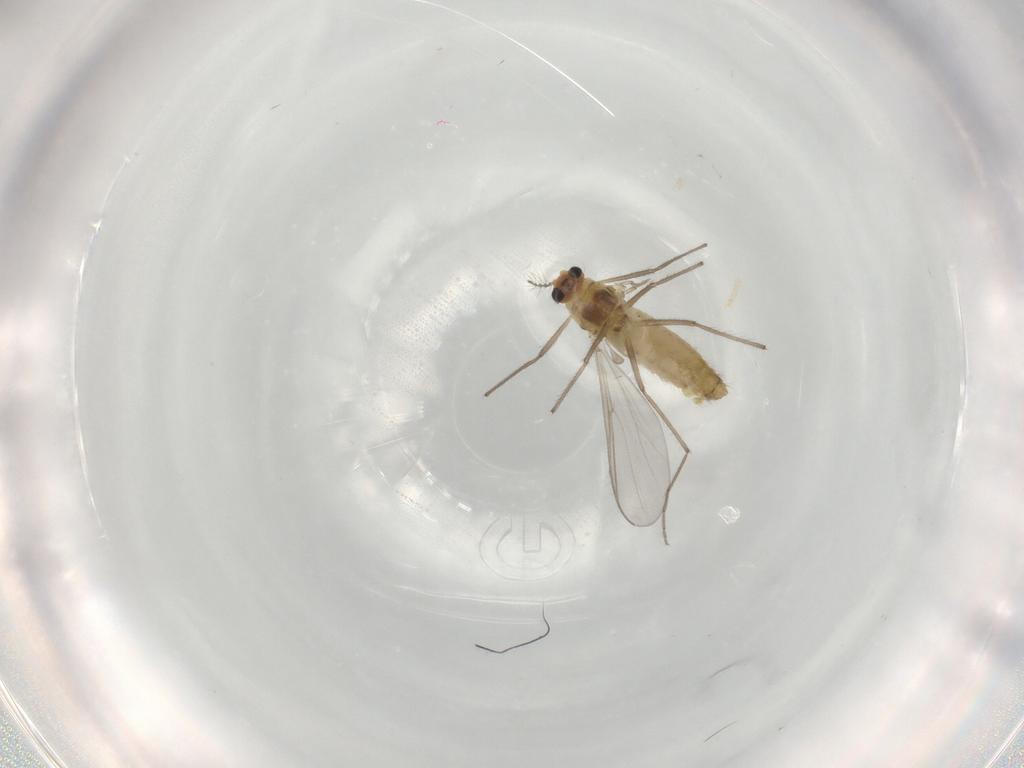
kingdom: Animalia
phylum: Arthropoda
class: Insecta
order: Diptera
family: Chironomidae
